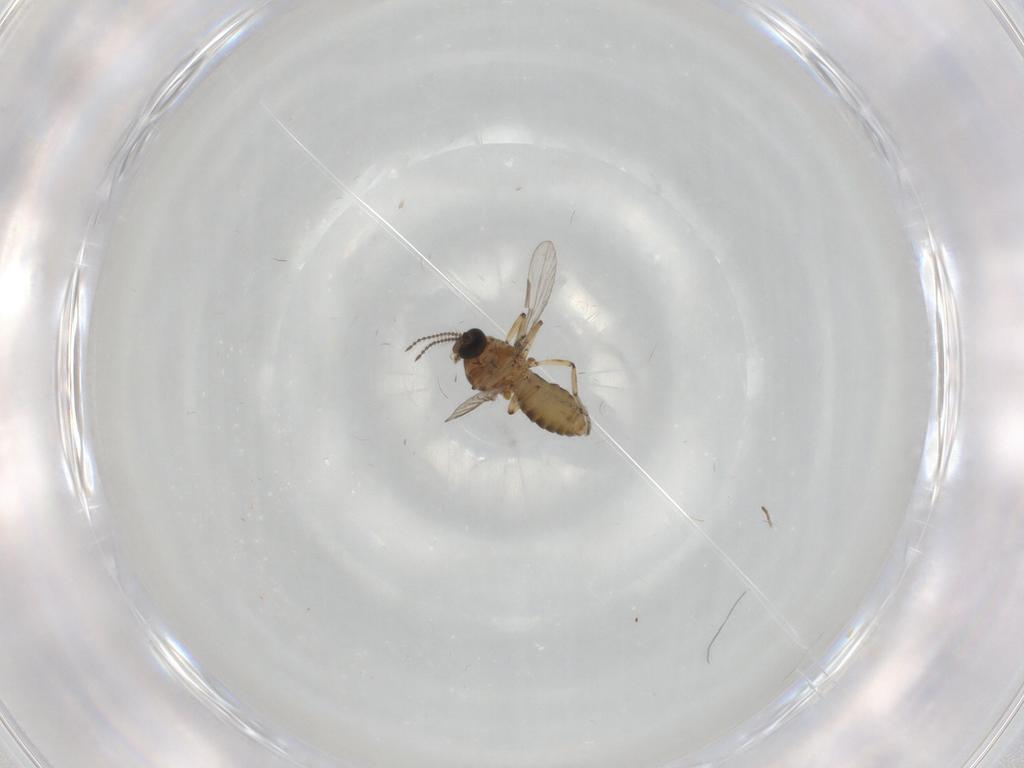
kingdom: Animalia
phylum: Arthropoda
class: Insecta
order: Diptera
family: Ceratopogonidae
